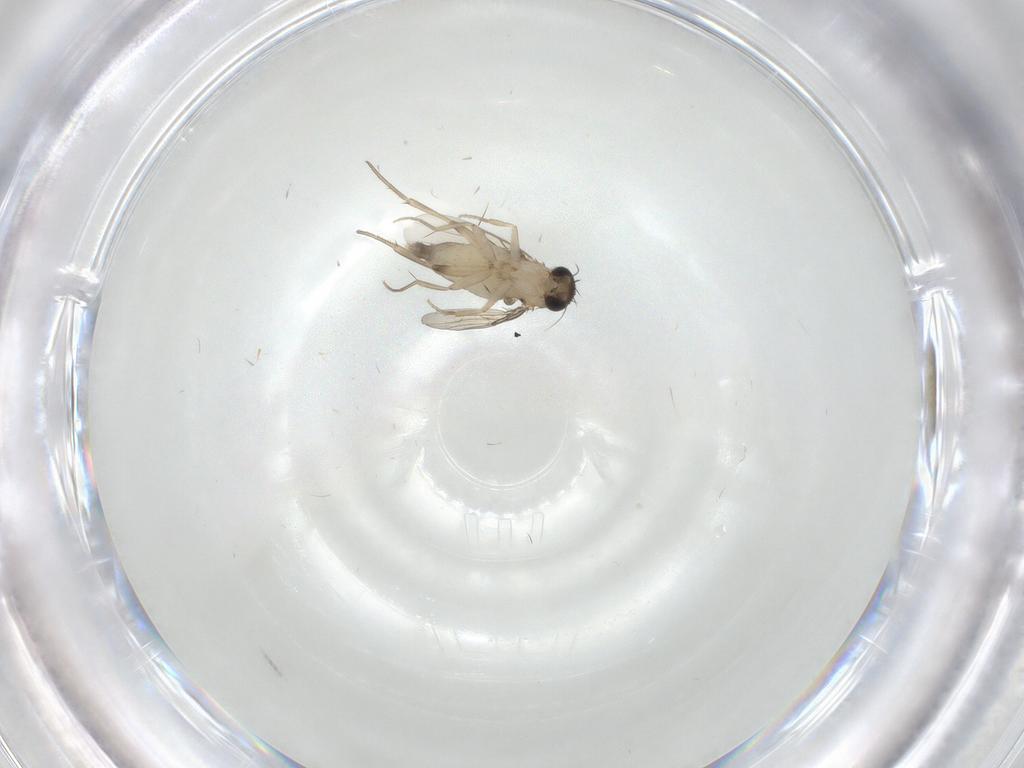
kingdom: Animalia
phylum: Arthropoda
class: Insecta
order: Diptera
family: Phoridae
